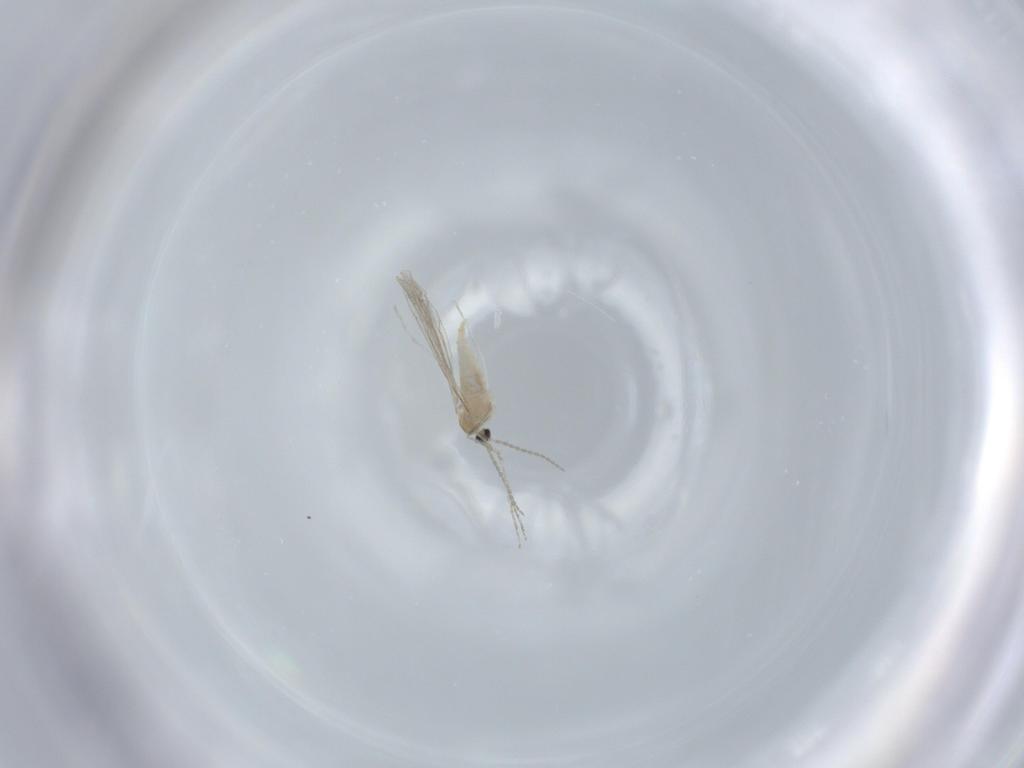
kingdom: Animalia
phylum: Arthropoda
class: Insecta
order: Diptera
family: Cecidomyiidae
